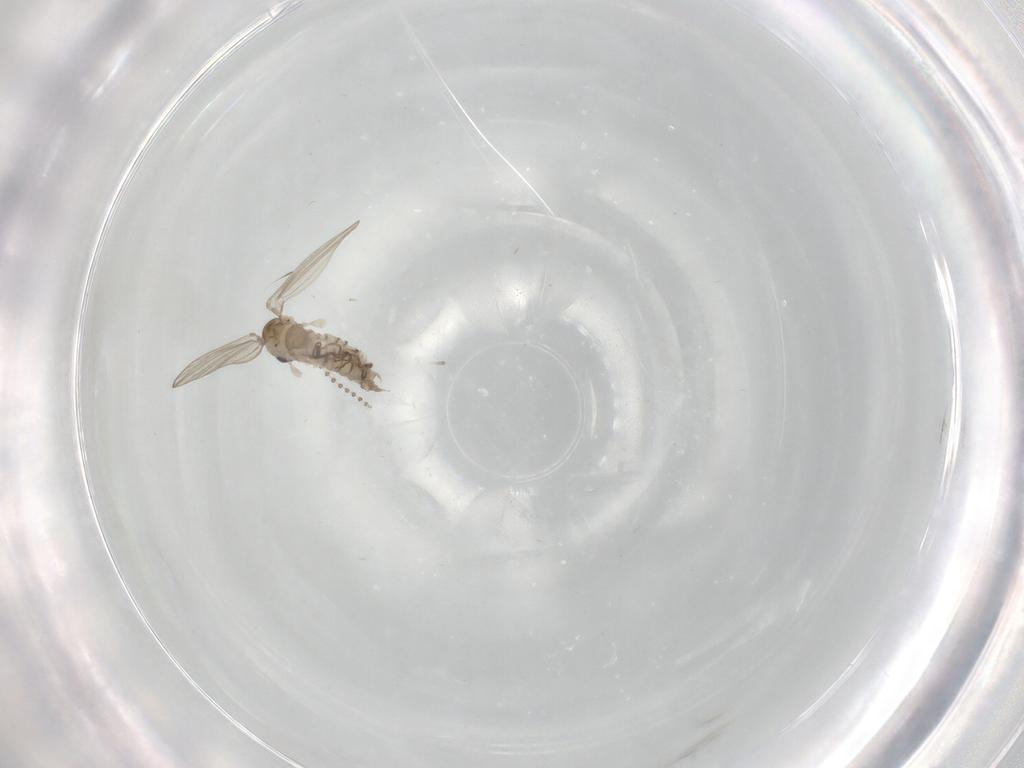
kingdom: Animalia
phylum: Arthropoda
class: Insecta
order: Diptera
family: Psychodidae
